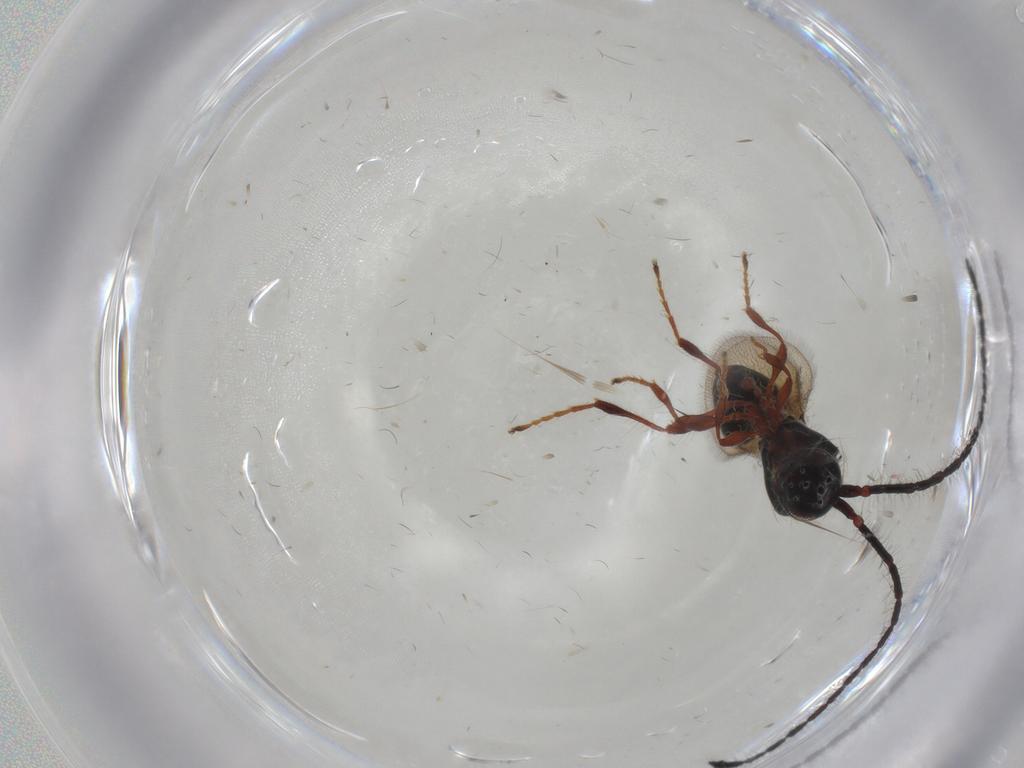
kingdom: Animalia
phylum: Arthropoda
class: Insecta
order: Hymenoptera
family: Diapriidae
